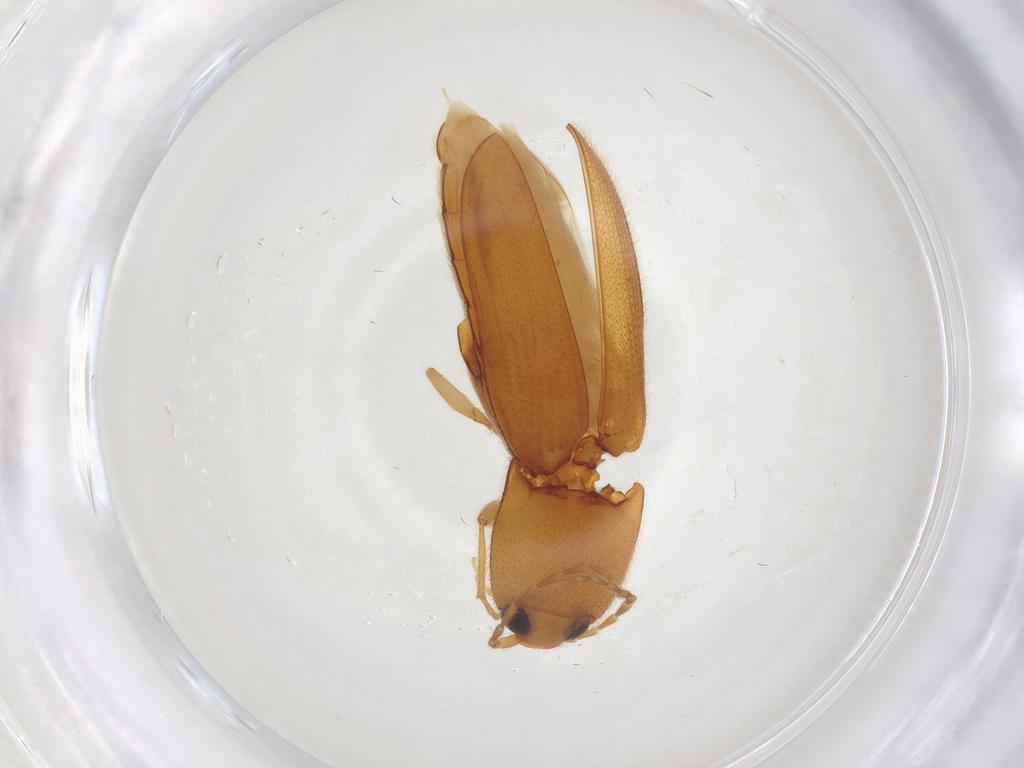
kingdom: Animalia
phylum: Arthropoda
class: Insecta
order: Coleoptera
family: Elateridae
